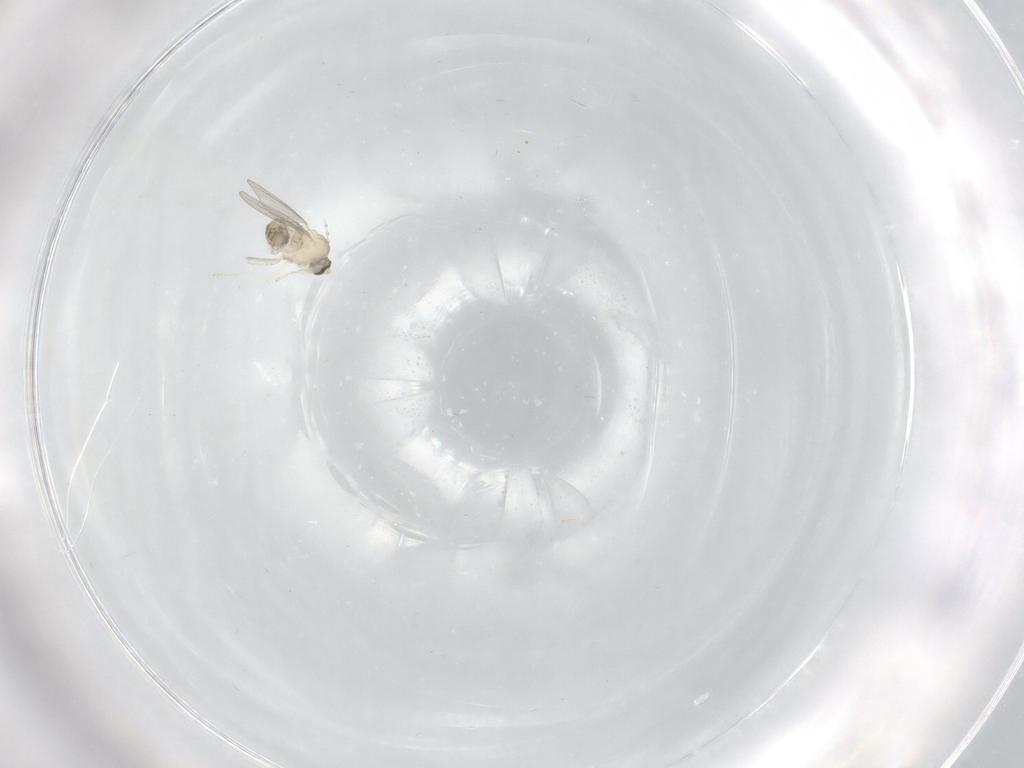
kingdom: Animalia
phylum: Arthropoda
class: Insecta
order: Diptera
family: Cecidomyiidae
